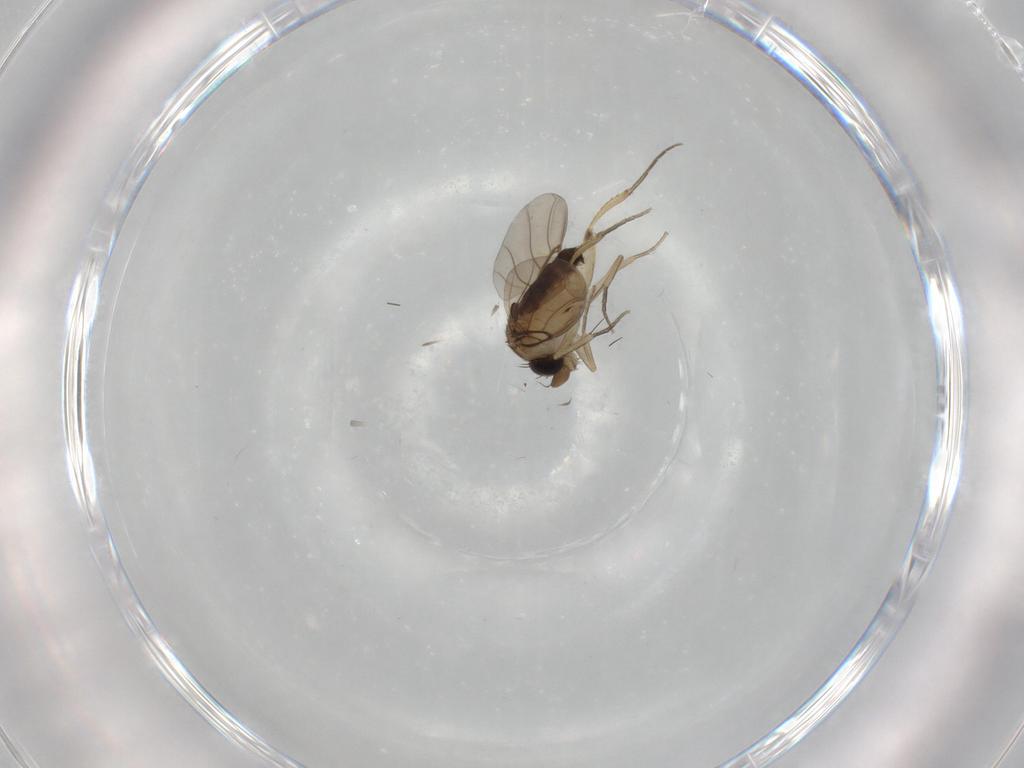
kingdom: Animalia
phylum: Arthropoda
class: Insecta
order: Diptera
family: Phoridae
